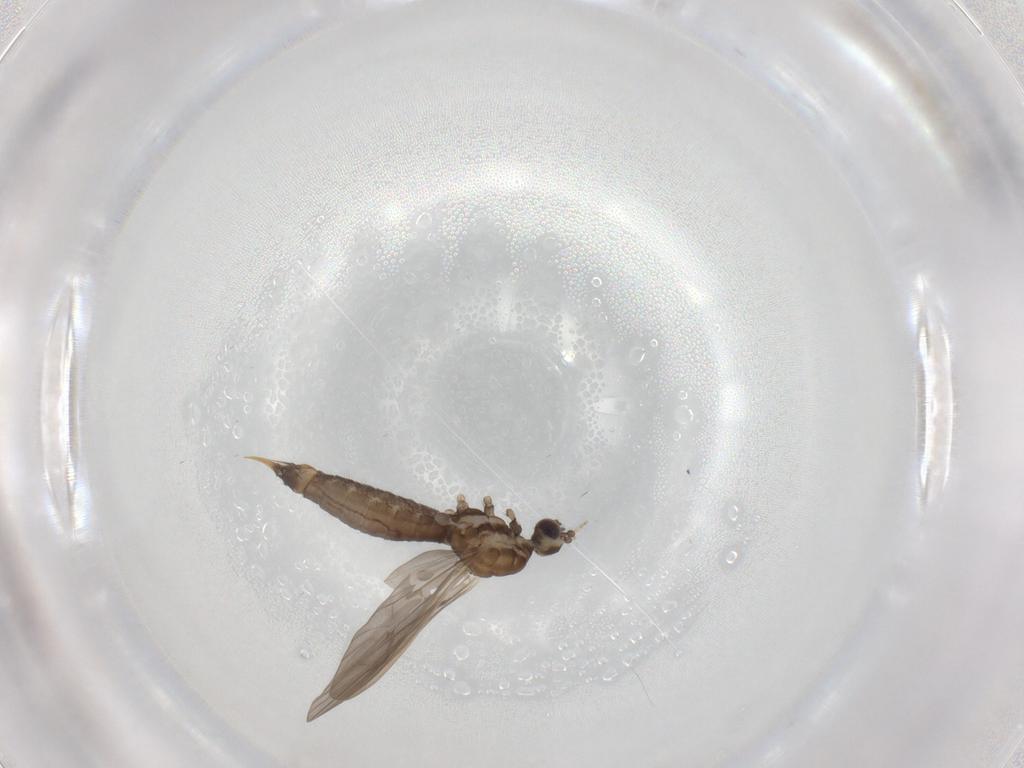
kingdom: Animalia
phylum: Arthropoda
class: Insecta
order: Diptera
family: Limoniidae
